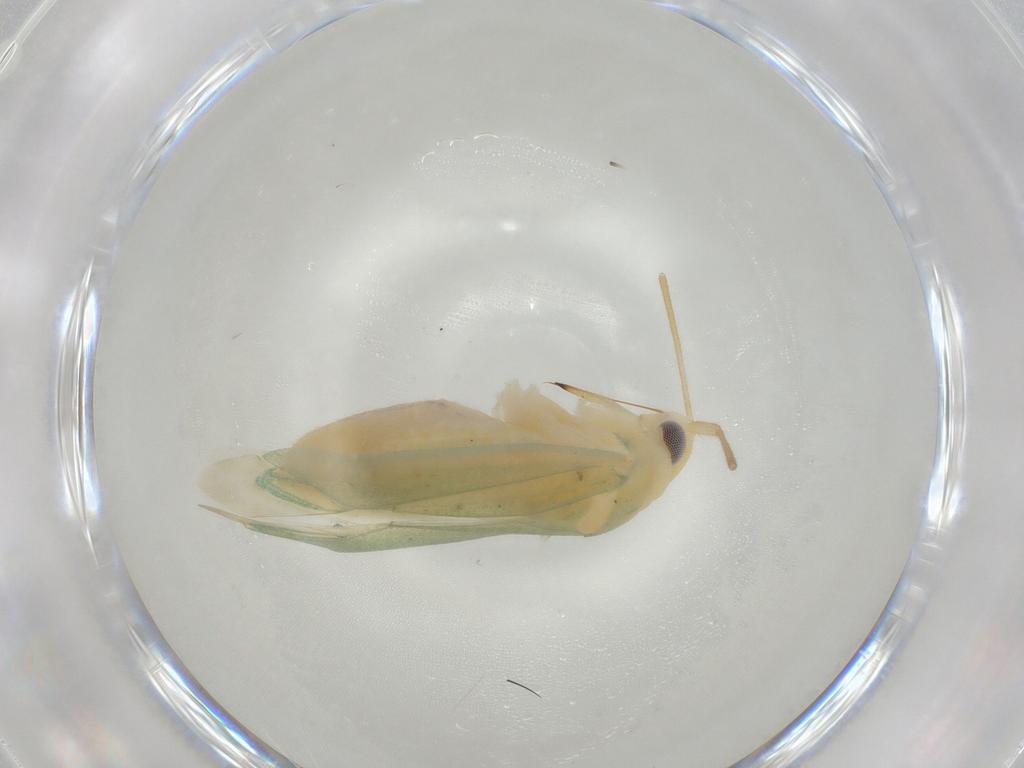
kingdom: Animalia
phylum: Arthropoda
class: Insecta
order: Hemiptera
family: Miridae
